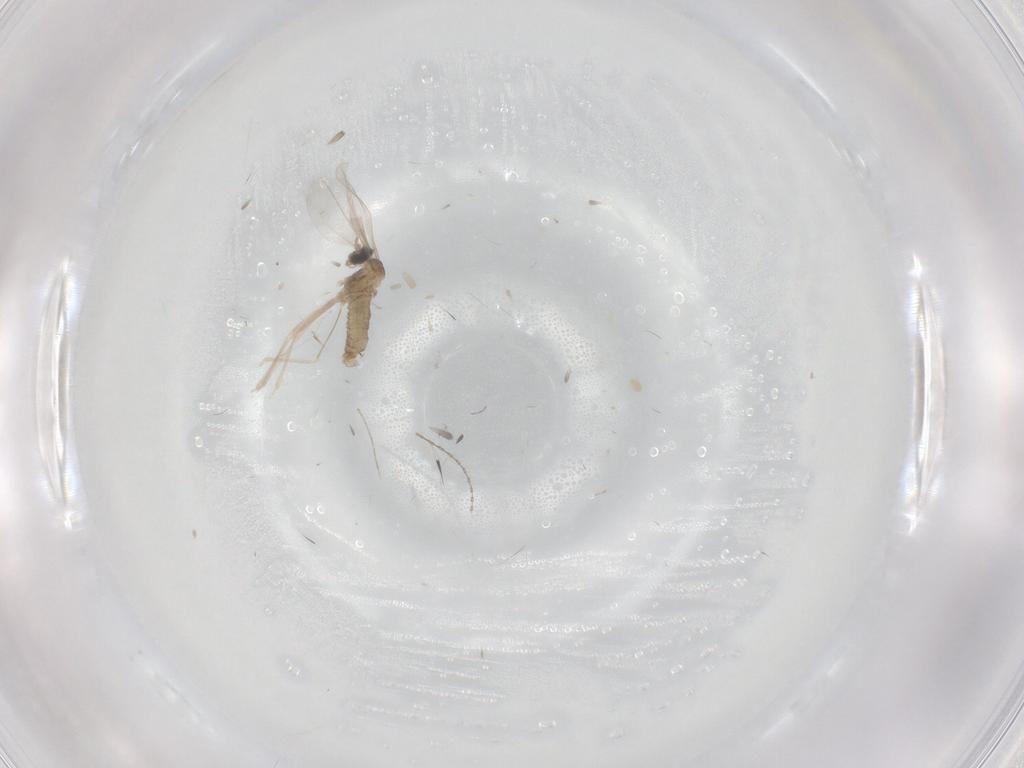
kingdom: Animalia
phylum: Arthropoda
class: Insecta
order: Diptera
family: Cecidomyiidae
